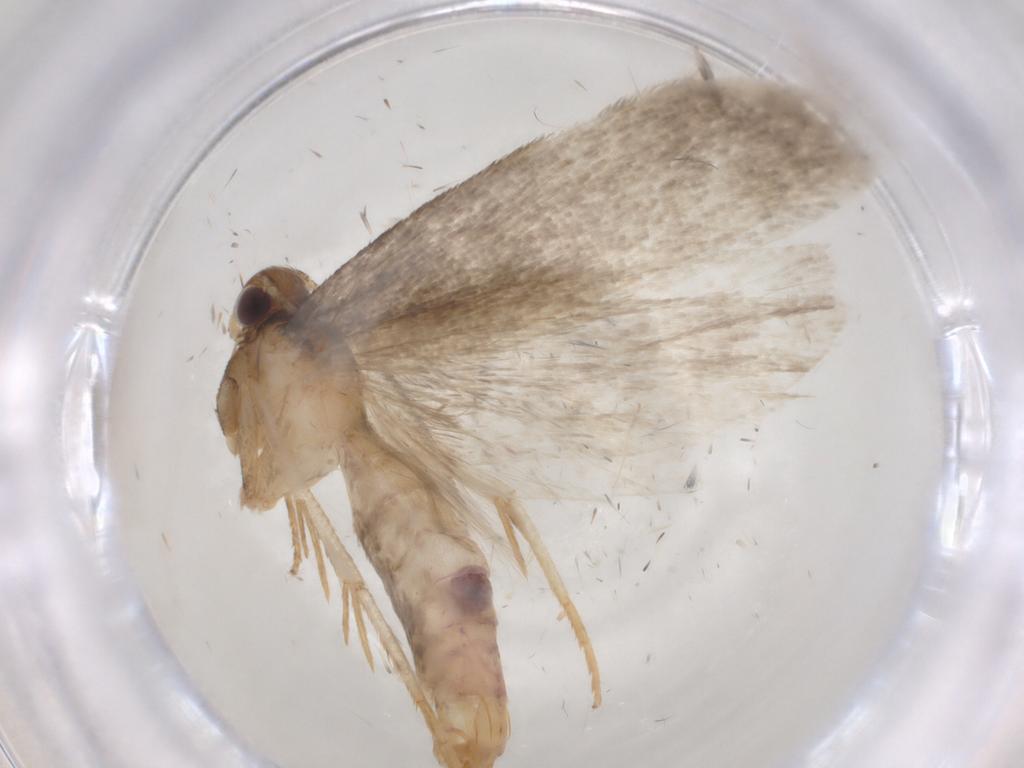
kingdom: Animalia
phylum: Arthropoda
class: Insecta
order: Lepidoptera
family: Gelechiidae
